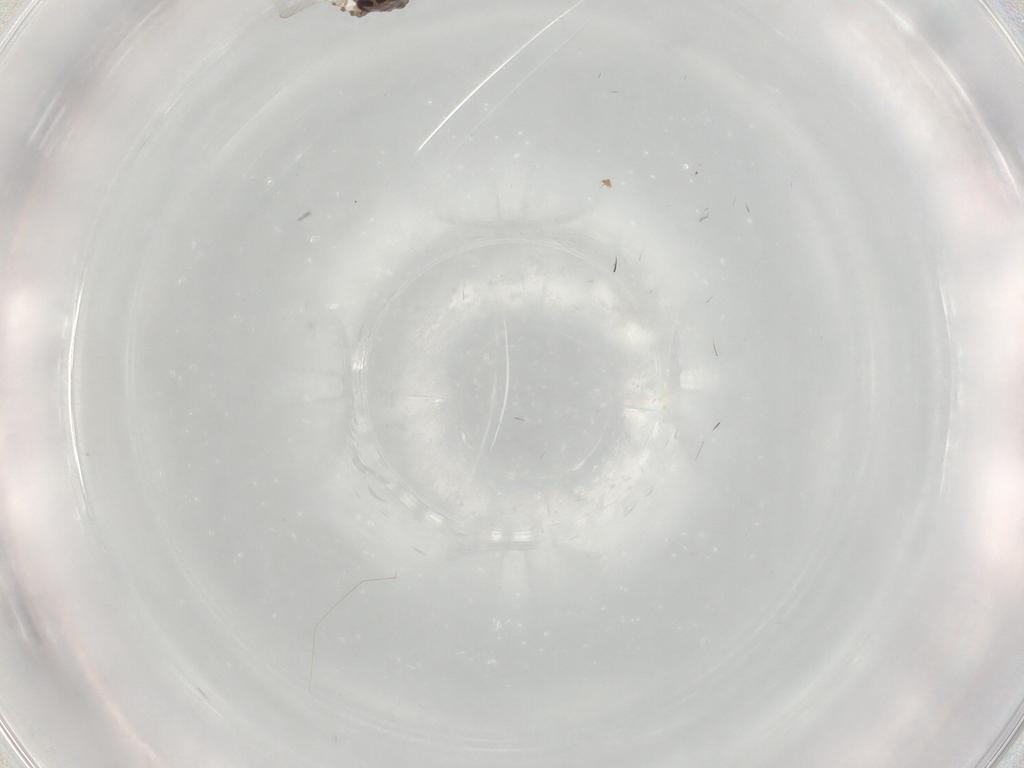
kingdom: Animalia
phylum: Arthropoda
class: Insecta
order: Diptera
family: Psychodidae
